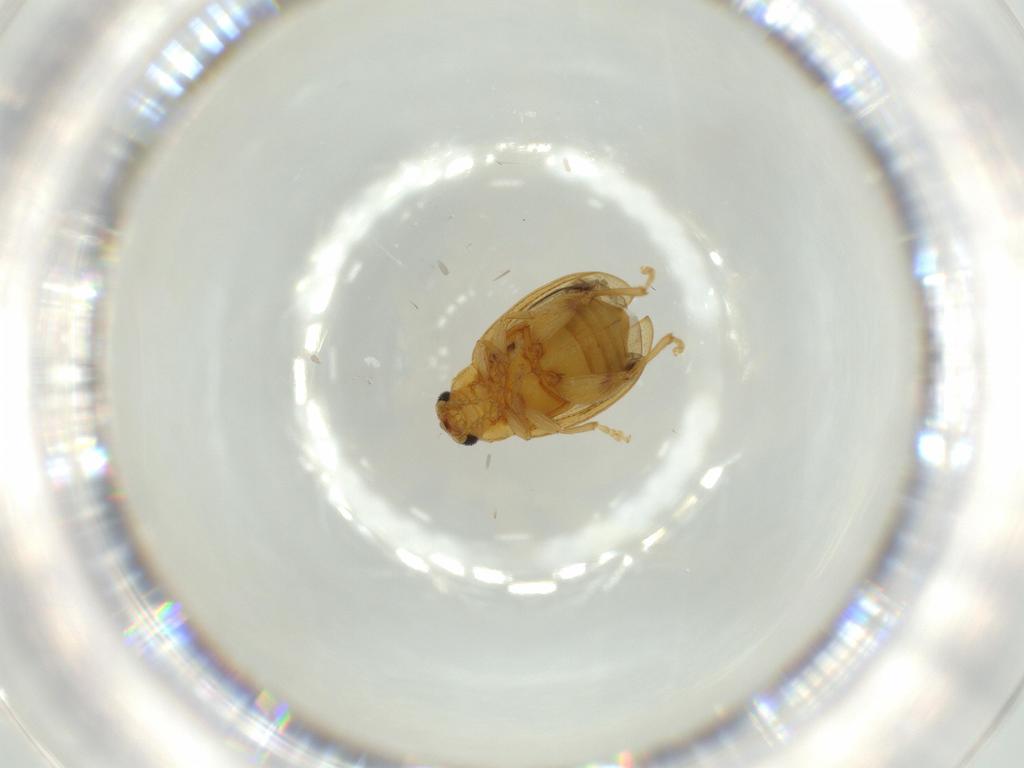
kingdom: Animalia
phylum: Arthropoda
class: Insecta
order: Coleoptera
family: Chrysomelidae
